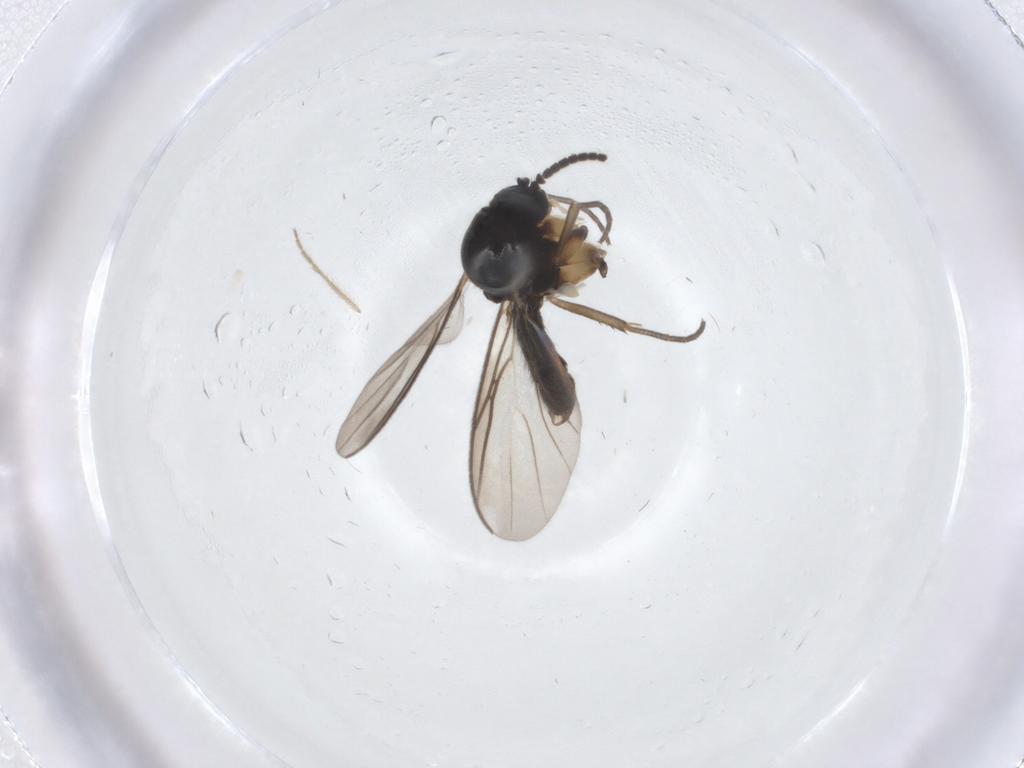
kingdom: Animalia
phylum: Arthropoda
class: Insecta
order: Diptera
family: Mycetophilidae
